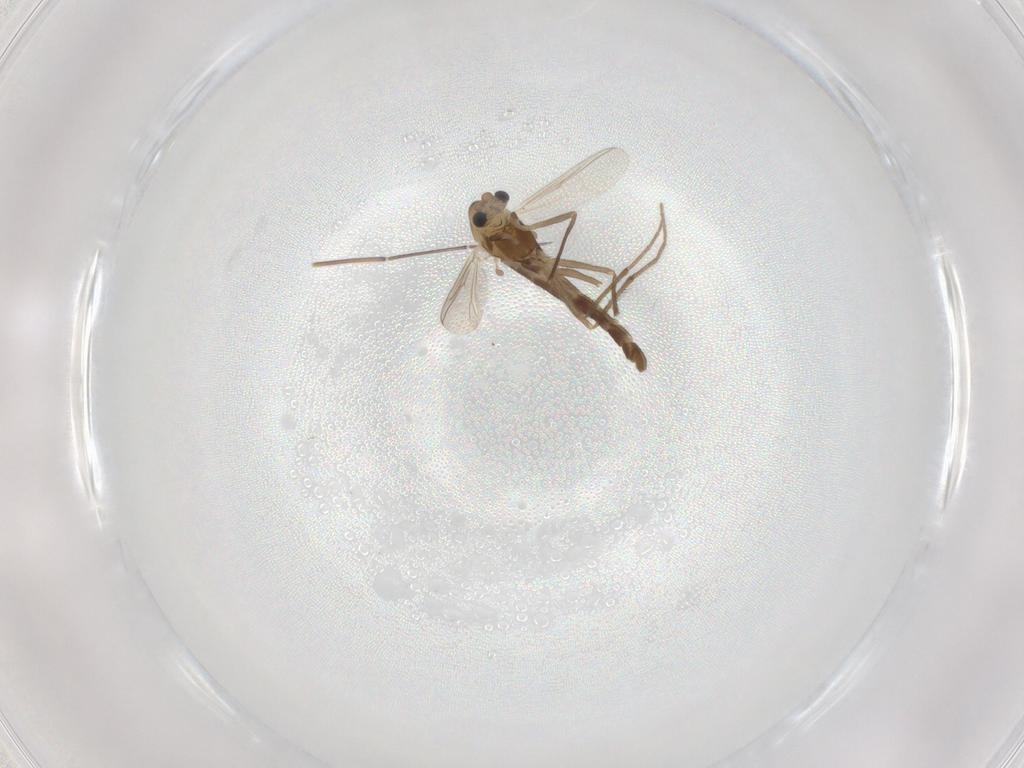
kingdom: Animalia
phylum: Arthropoda
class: Insecta
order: Diptera
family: Chironomidae
